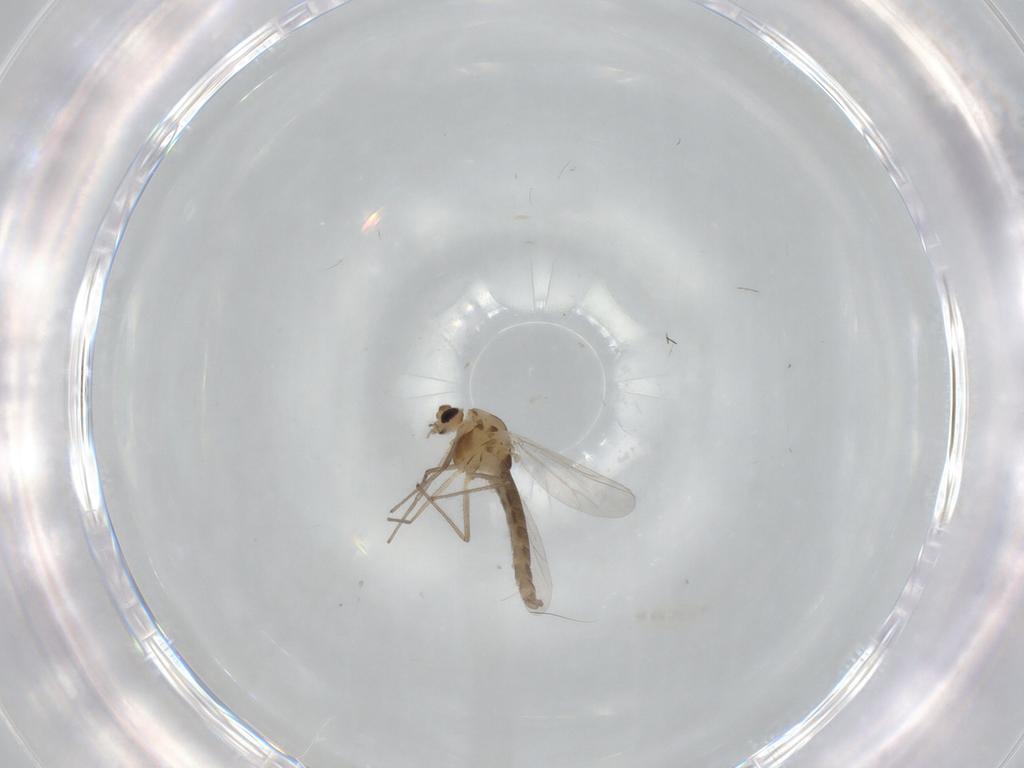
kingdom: Animalia
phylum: Arthropoda
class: Insecta
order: Diptera
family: Chironomidae
